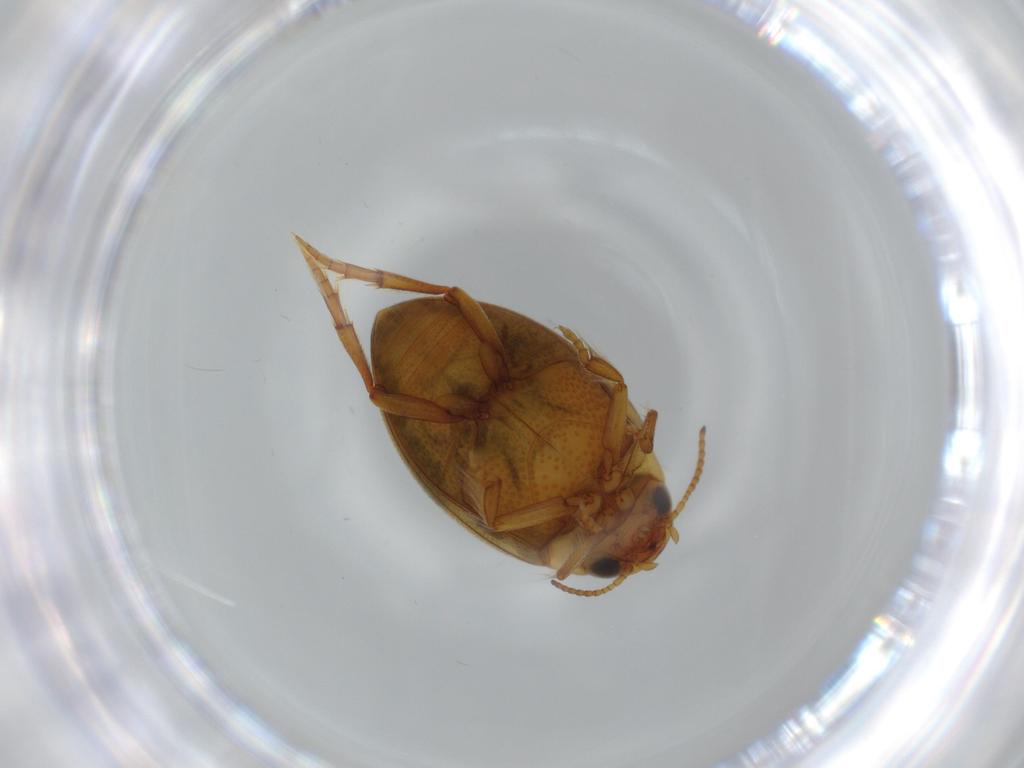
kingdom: Animalia
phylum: Arthropoda
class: Insecta
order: Coleoptera
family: Dytiscidae
